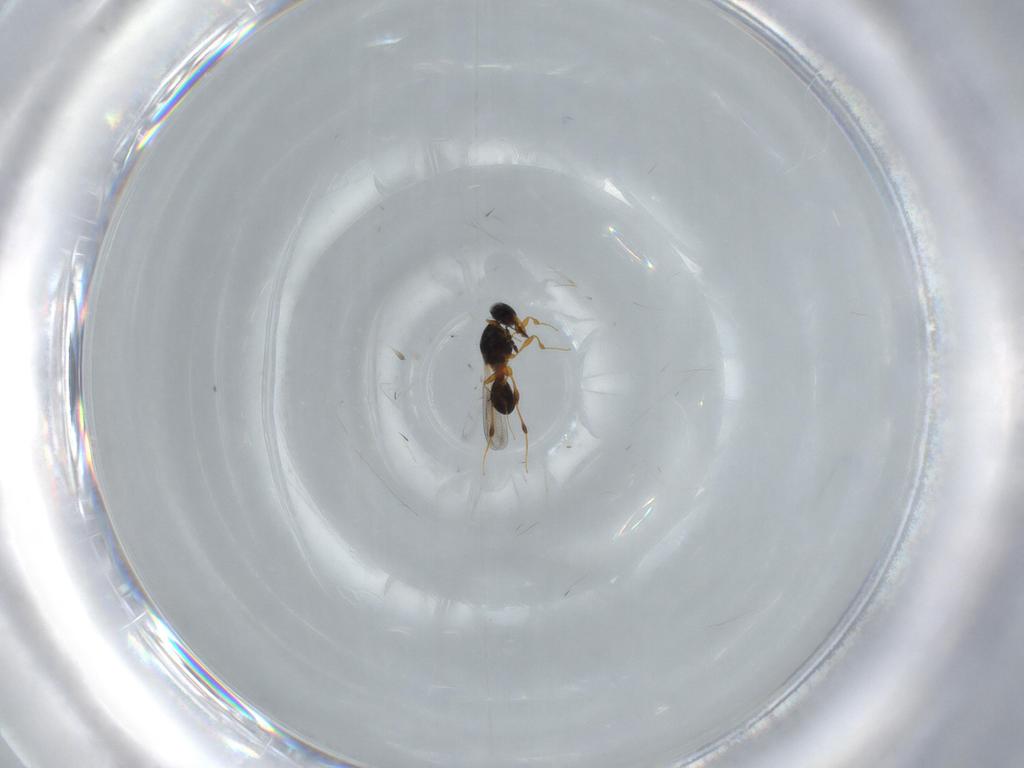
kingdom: Animalia
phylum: Arthropoda
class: Insecta
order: Hymenoptera
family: Platygastridae
